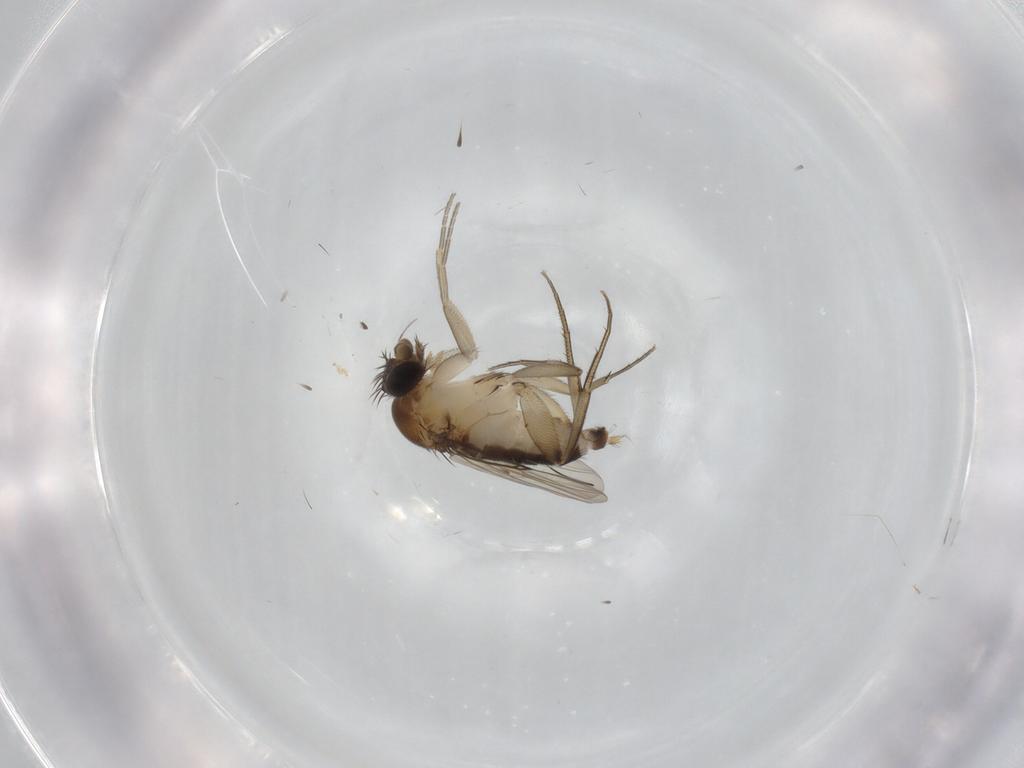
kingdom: Animalia
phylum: Arthropoda
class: Insecta
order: Diptera
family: Phoridae
